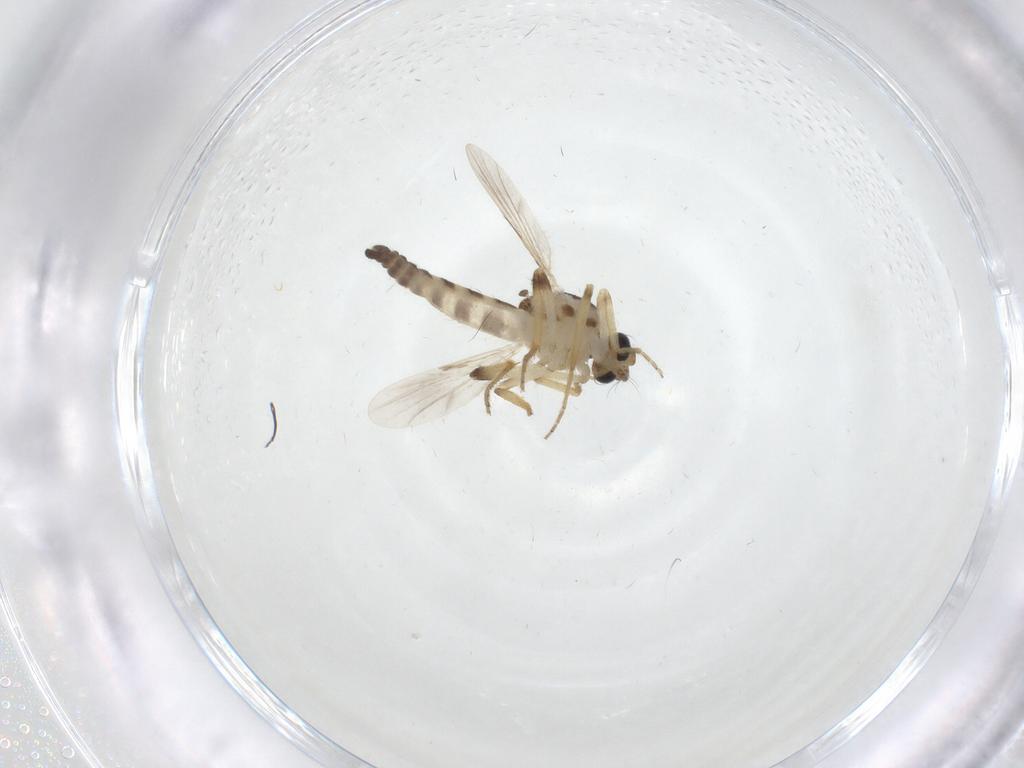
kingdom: Animalia
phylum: Arthropoda
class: Insecta
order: Diptera
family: Ceratopogonidae
